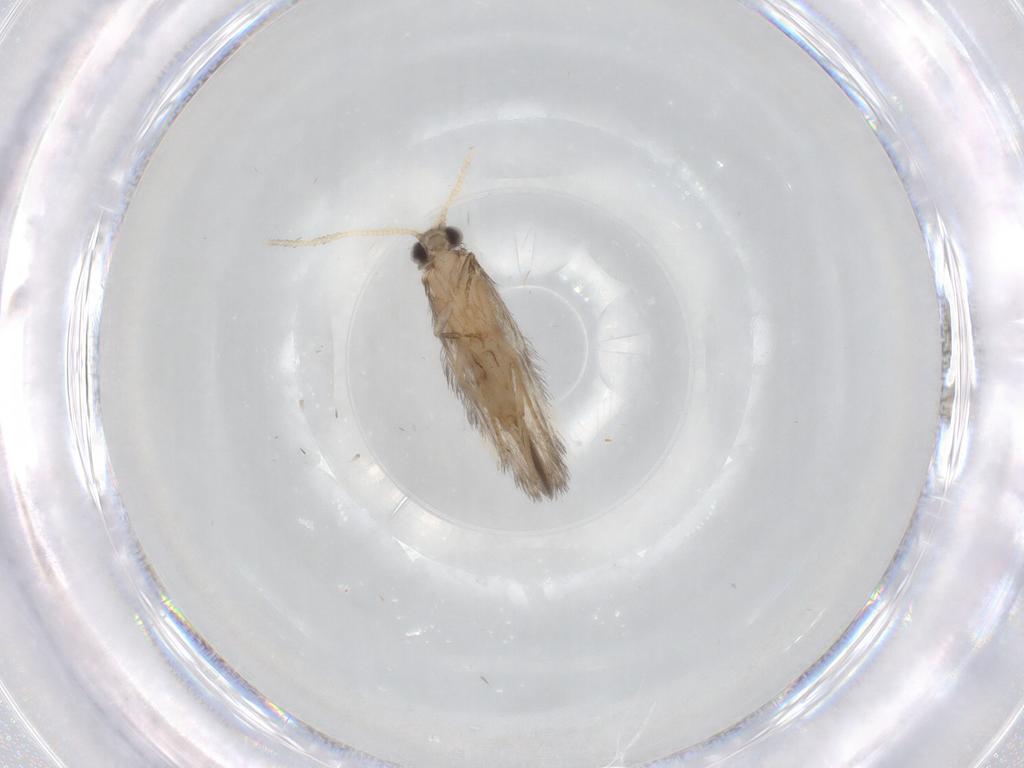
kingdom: Animalia
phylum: Arthropoda
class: Insecta
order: Trichoptera
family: Hydroptilidae
